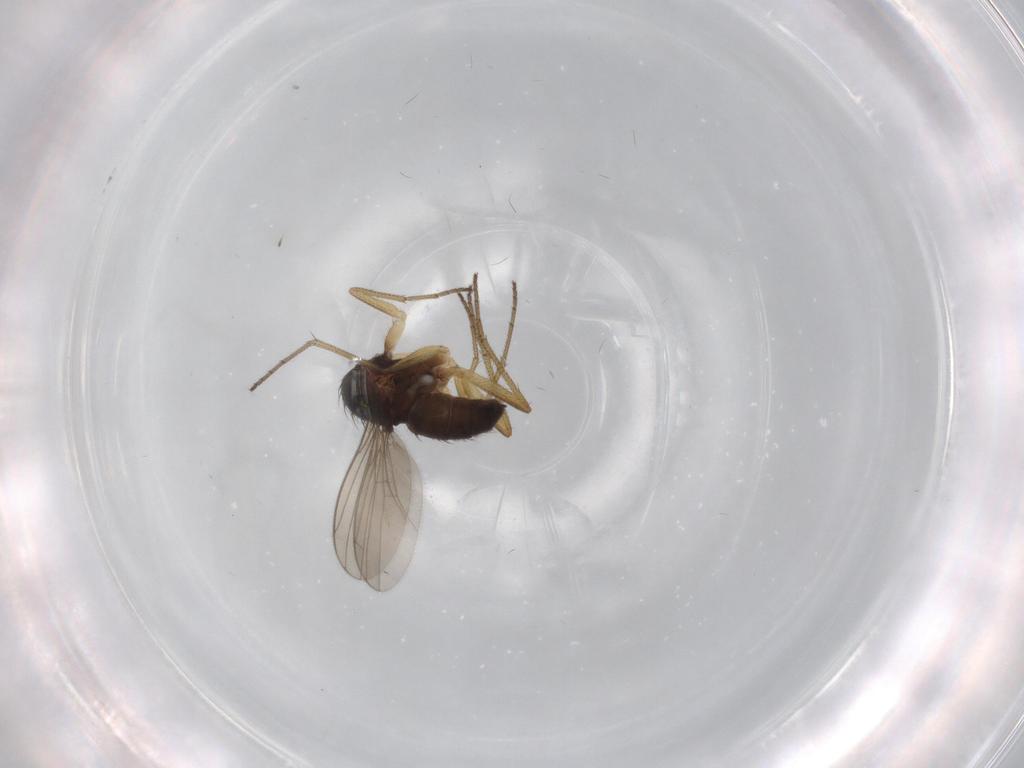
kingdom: Animalia
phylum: Arthropoda
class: Insecta
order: Diptera
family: Dolichopodidae
